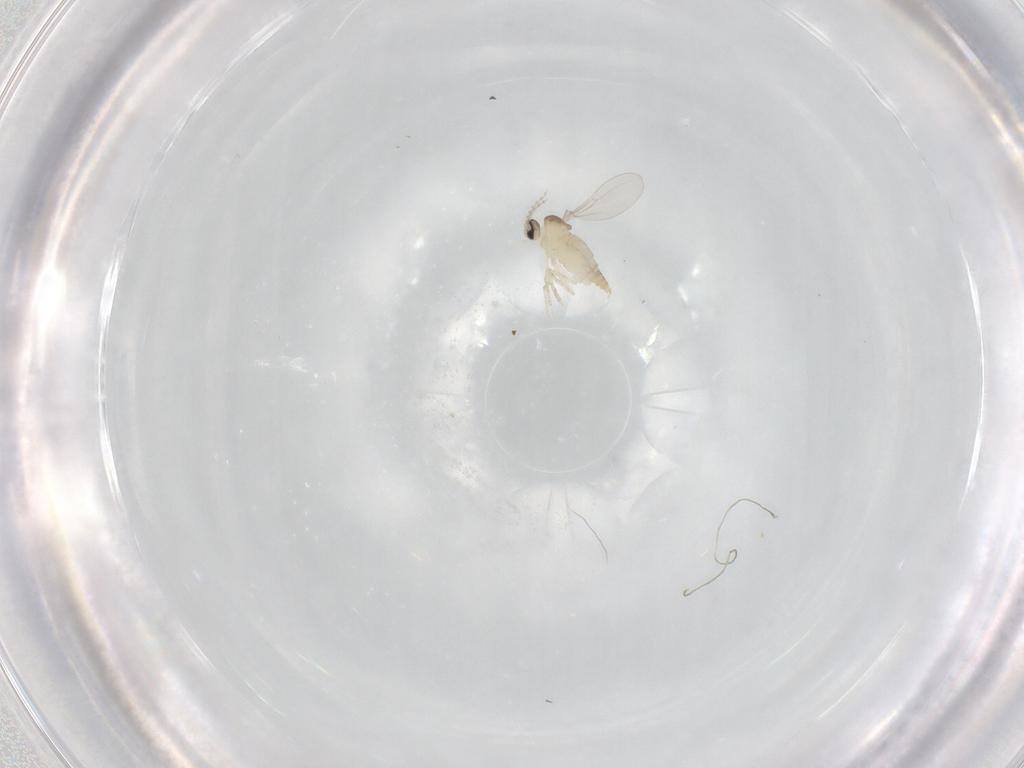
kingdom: Animalia
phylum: Arthropoda
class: Insecta
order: Diptera
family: Cecidomyiidae
